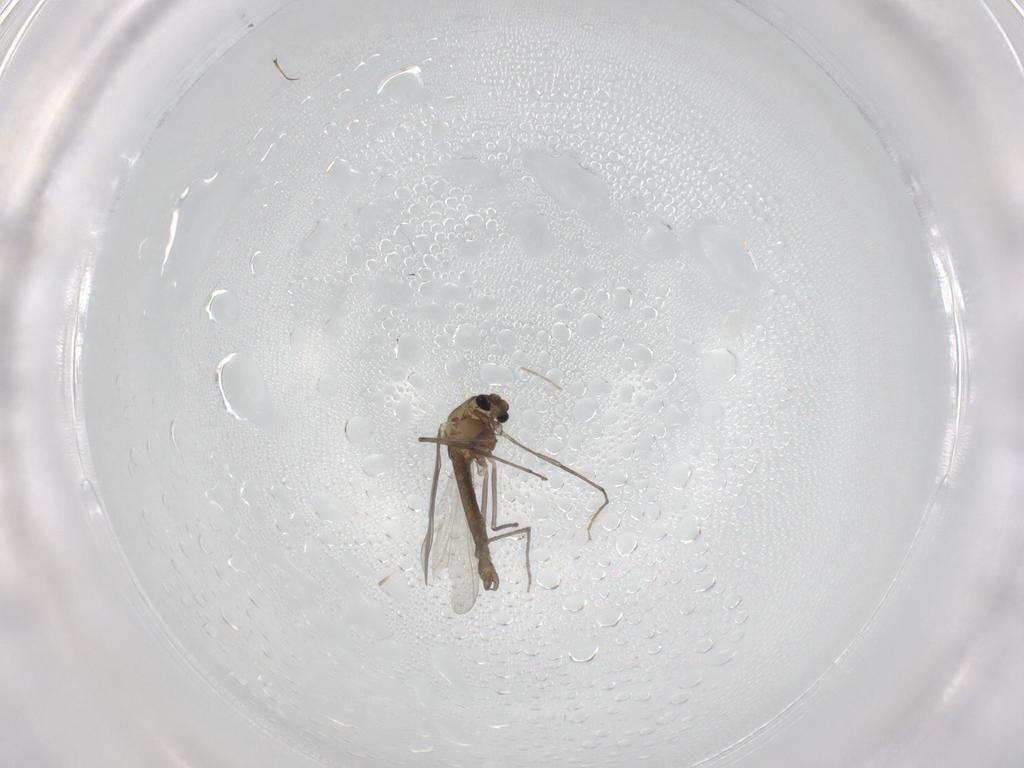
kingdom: Animalia
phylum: Arthropoda
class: Insecta
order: Diptera
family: Chironomidae
